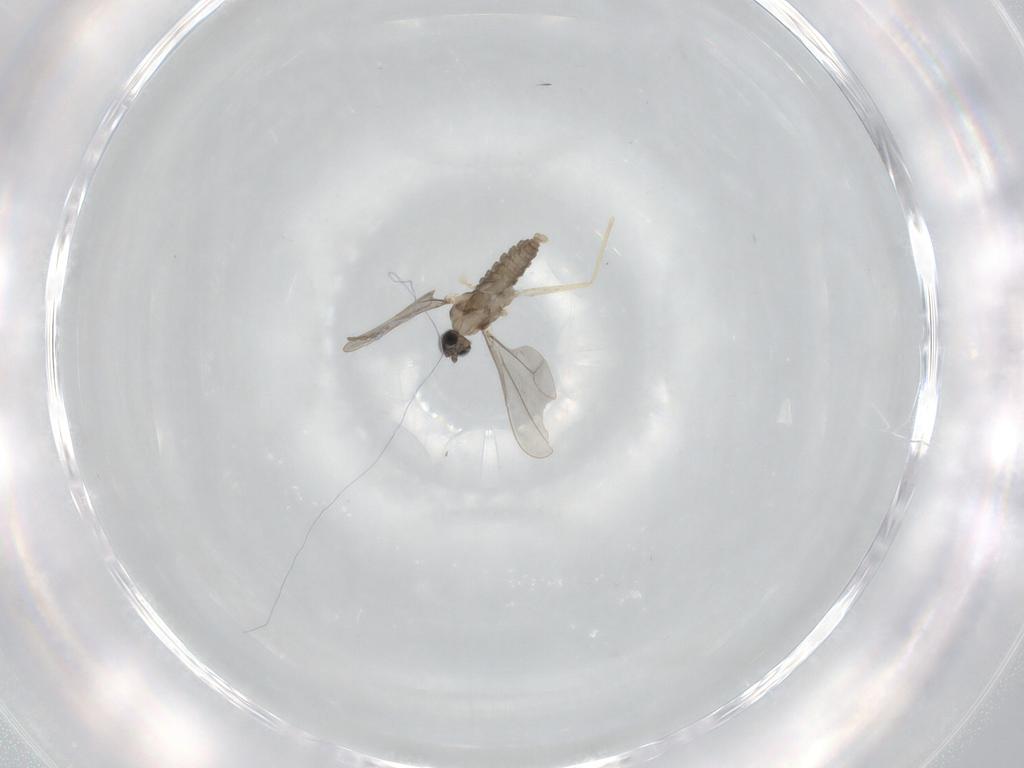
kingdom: Animalia
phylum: Arthropoda
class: Insecta
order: Diptera
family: Cecidomyiidae
